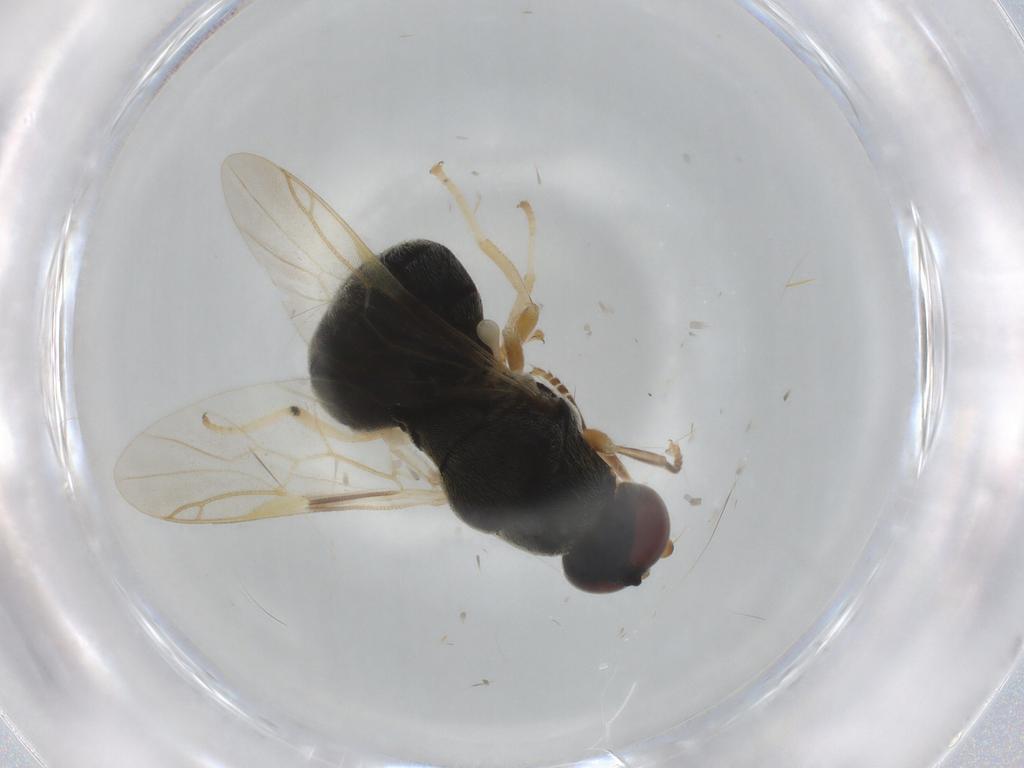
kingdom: Animalia
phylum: Arthropoda
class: Insecta
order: Diptera
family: Stratiomyidae
